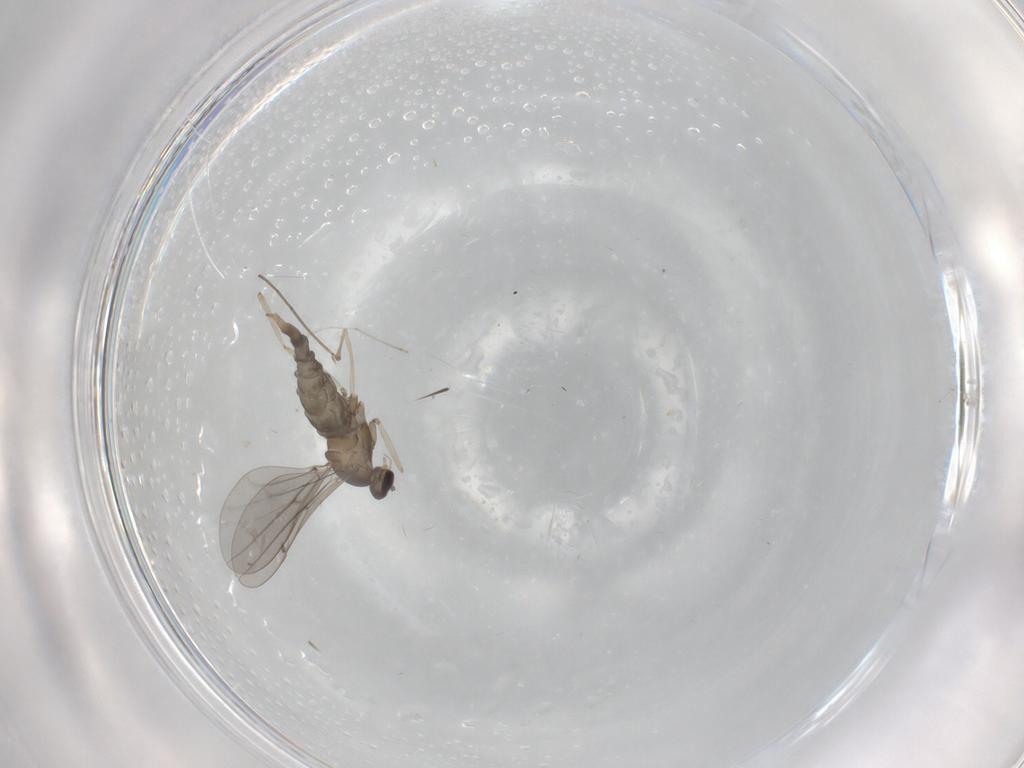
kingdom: Animalia
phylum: Arthropoda
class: Insecta
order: Diptera
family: Cecidomyiidae
